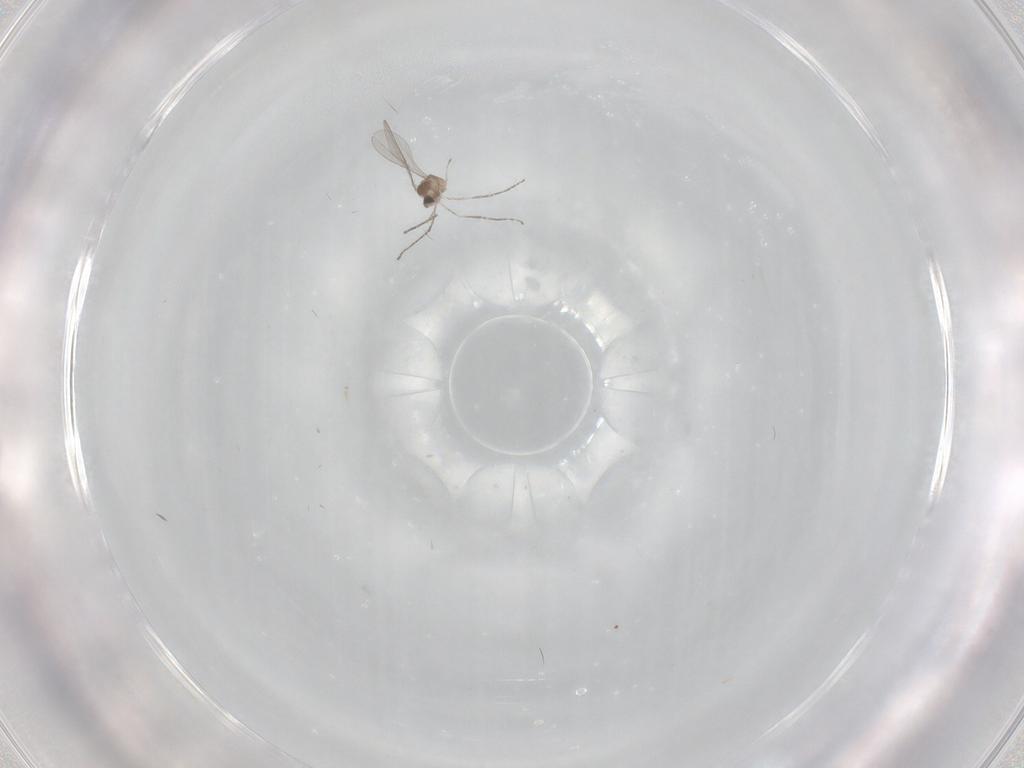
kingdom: Animalia
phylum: Arthropoda
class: Insecta
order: Diptera
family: Cecidomyiidae
